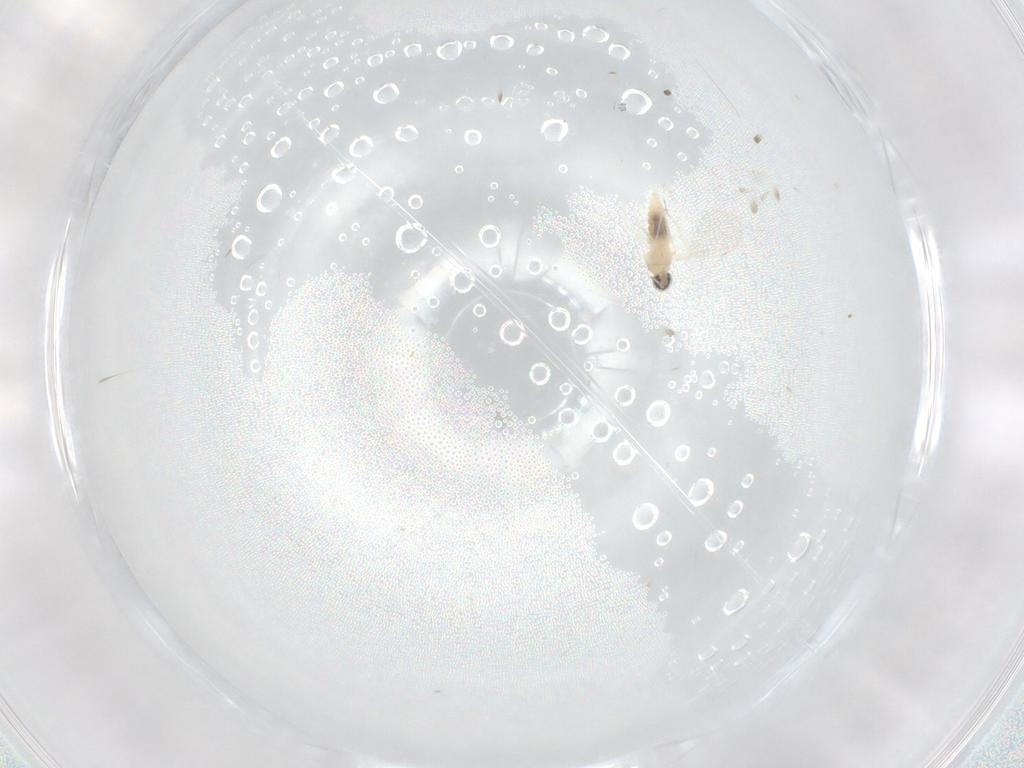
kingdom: Animalia
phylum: Arthropoda
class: Insecta
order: Diptera
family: Cecidomyiidae
